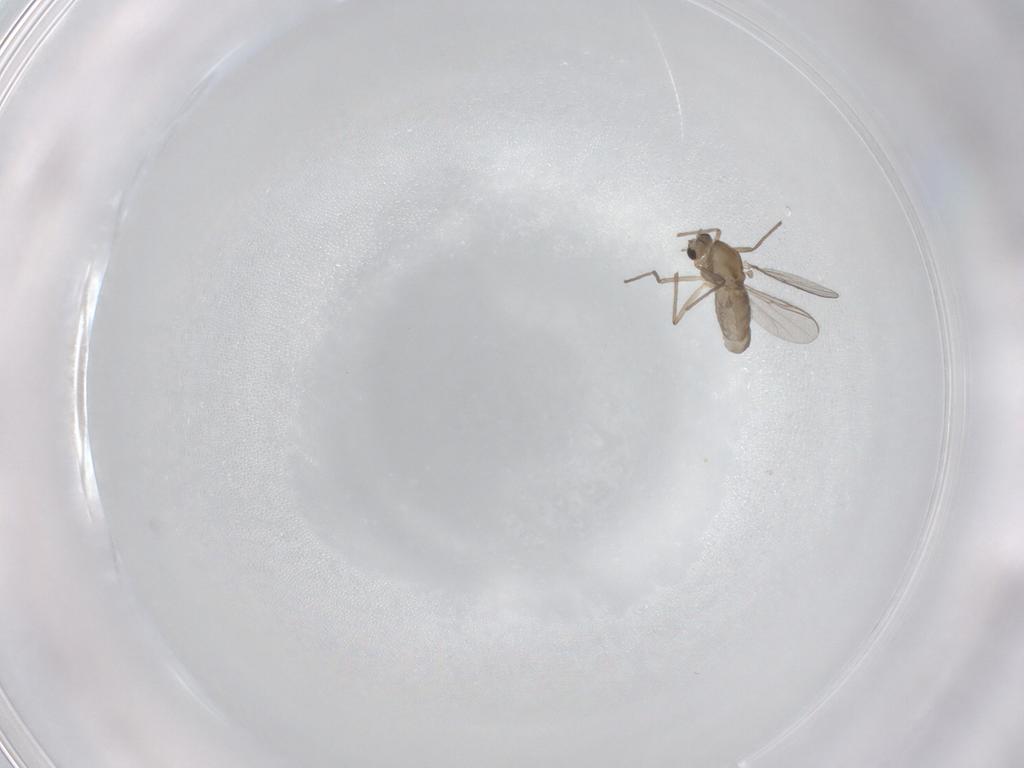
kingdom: Animalia
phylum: Arthropoda
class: Insecta
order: Diptera
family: Chironomidae
